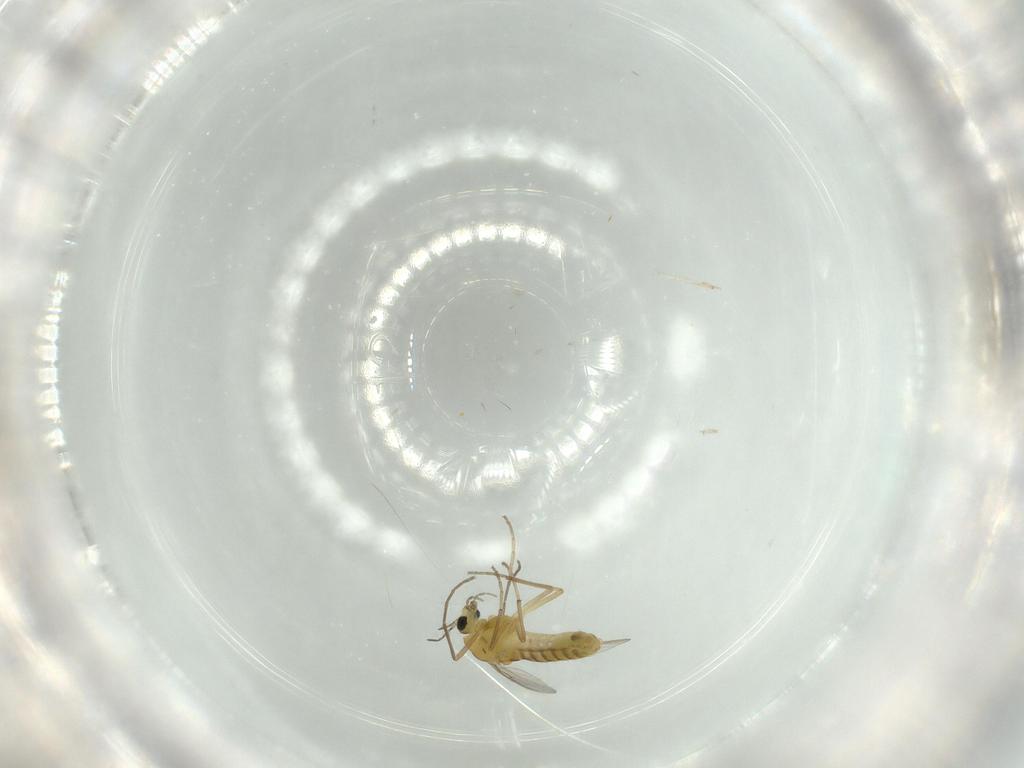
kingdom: Animalia
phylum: Arthropoda
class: Insecta
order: Diptera
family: Chironomidae
